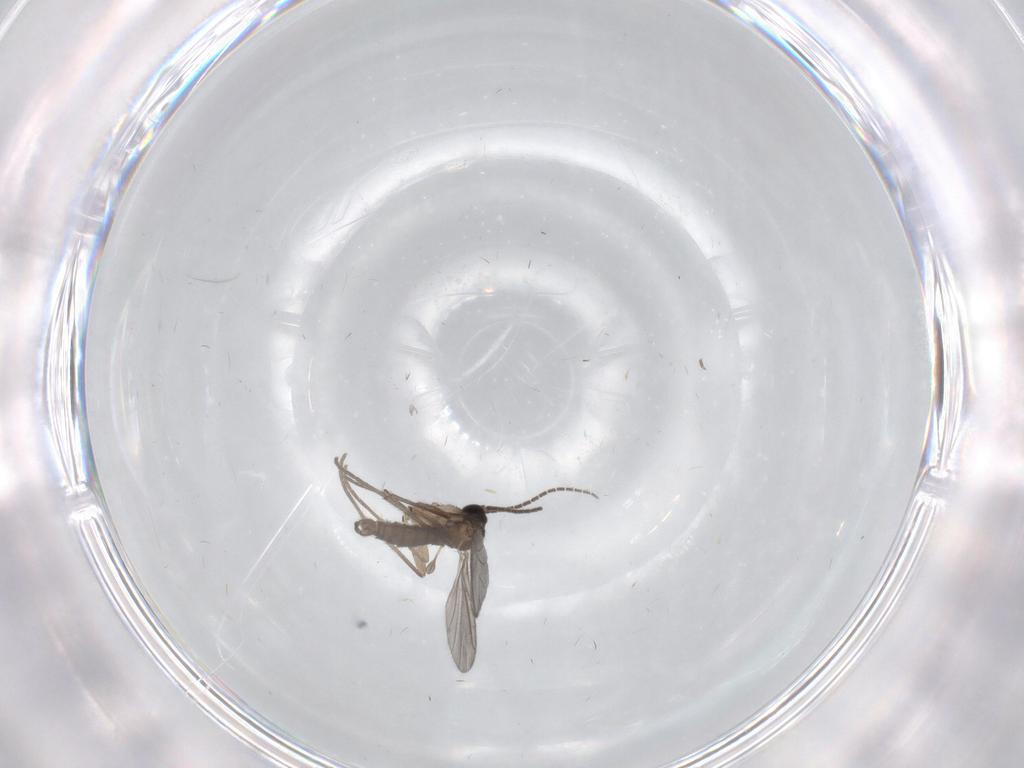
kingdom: Animalia
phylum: Arthropoda
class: Insecta
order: Diptera
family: Sciaridae
